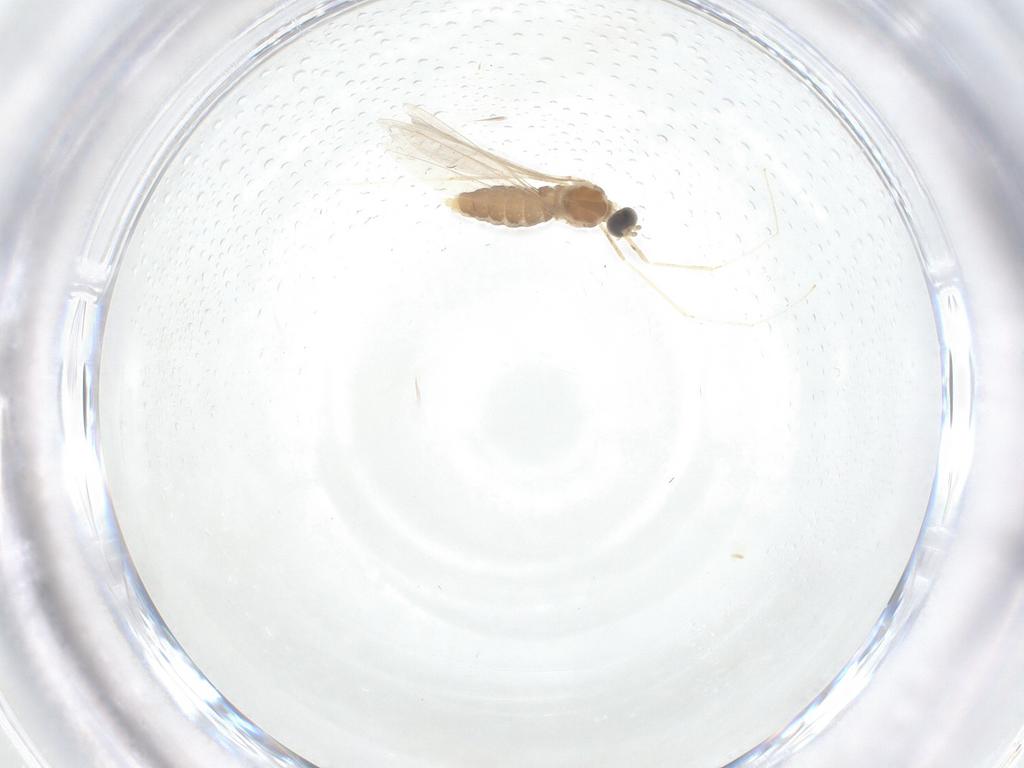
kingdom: Animalia
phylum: Arthropoda
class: Insecta
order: Diptera
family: Cecidomyiidae
